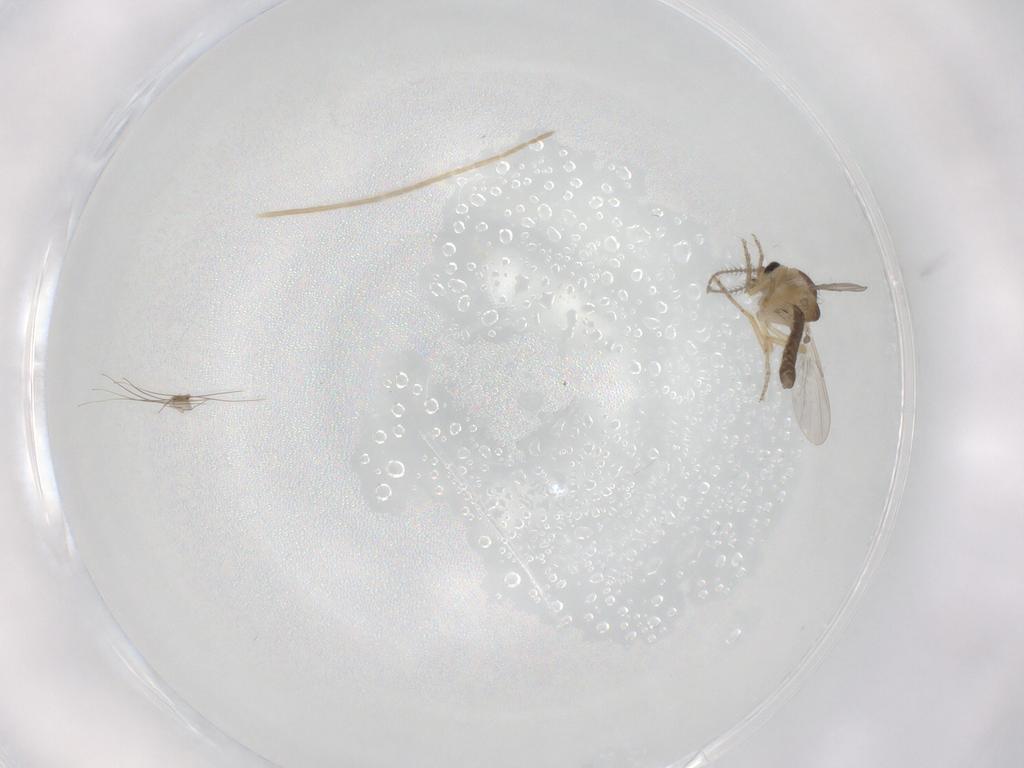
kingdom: Animalia
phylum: Arthropoda
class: Insecta
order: Diptera
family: Ceratopogonidae
